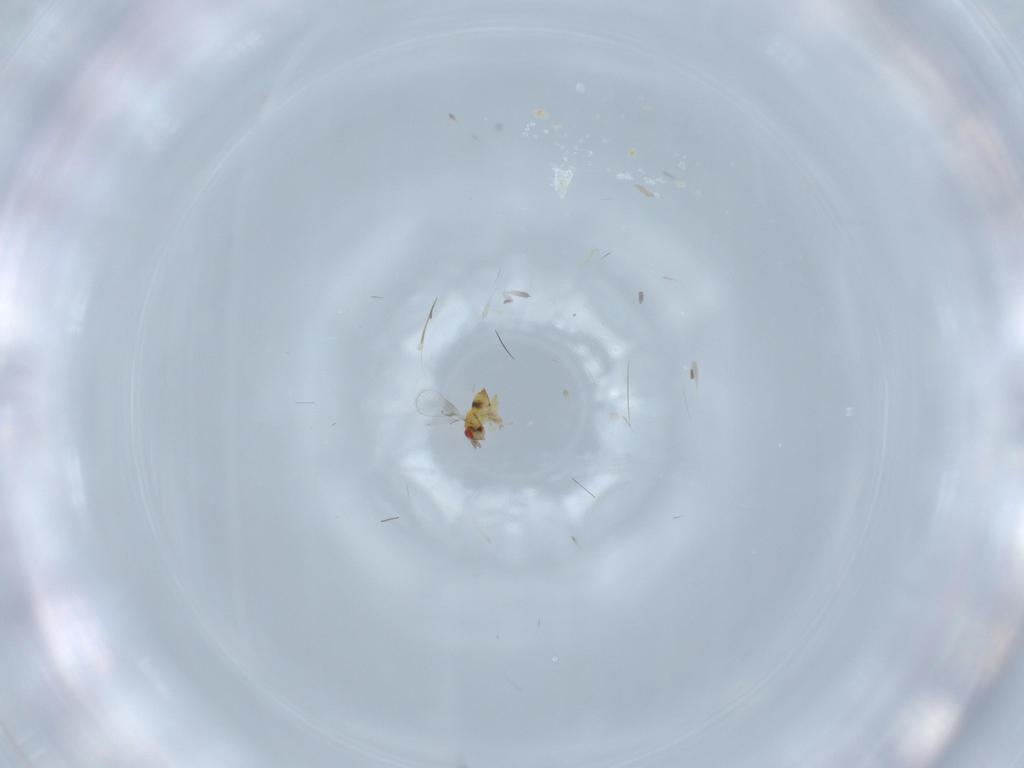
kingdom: Animalia
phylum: Arthropoda
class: Insecta
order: Hymenoptera
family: Trichogrammatidae
